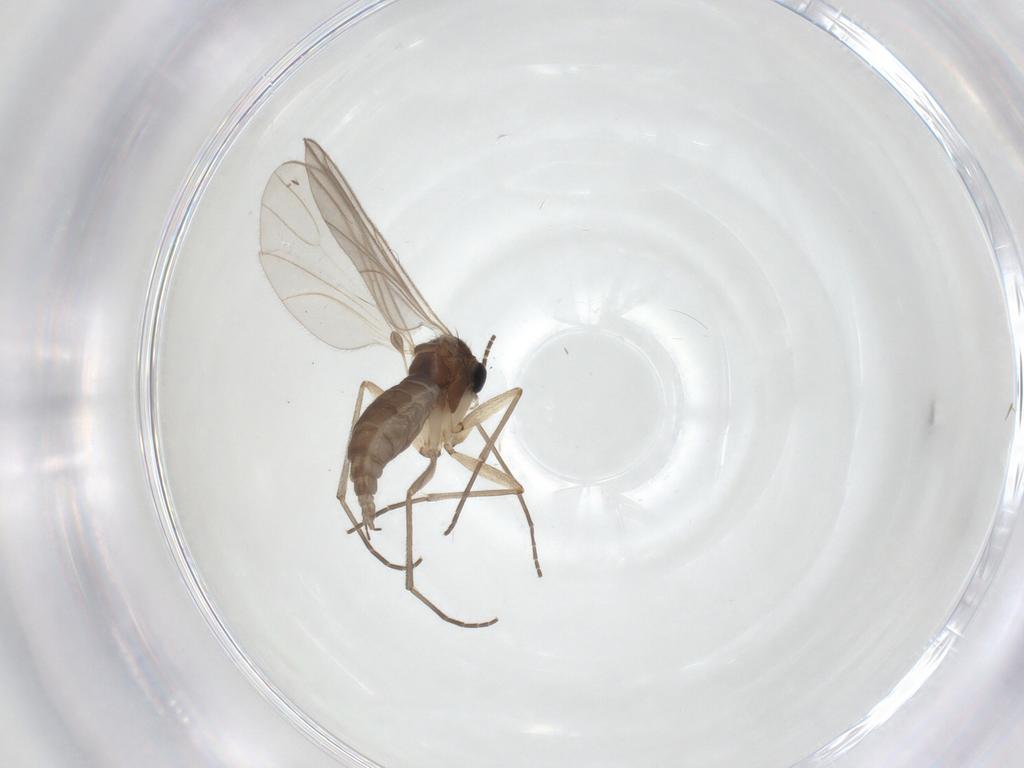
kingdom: Animalia
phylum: Arthropoda
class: Insecta
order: Diptera
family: Sciaridae
